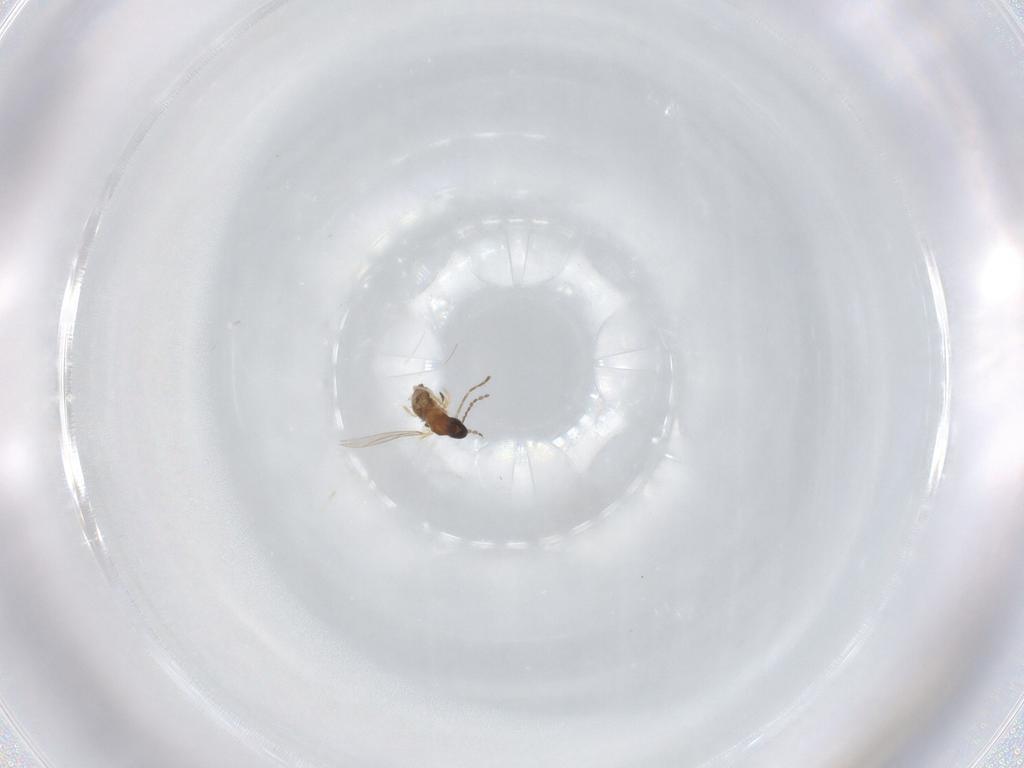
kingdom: Animalia
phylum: Arthropoda
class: Insecta
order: Diptera
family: Cecidomyiidae
